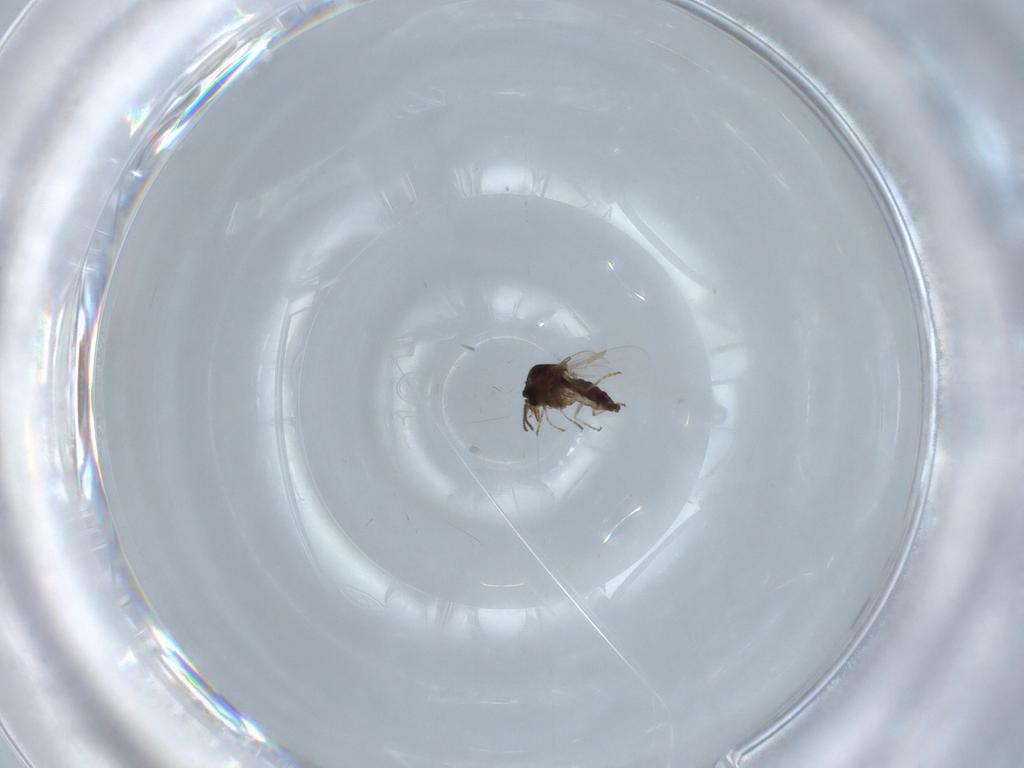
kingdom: Animalia
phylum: Arthropoda
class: Insecta
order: Diptera
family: Ceratopogonidae
